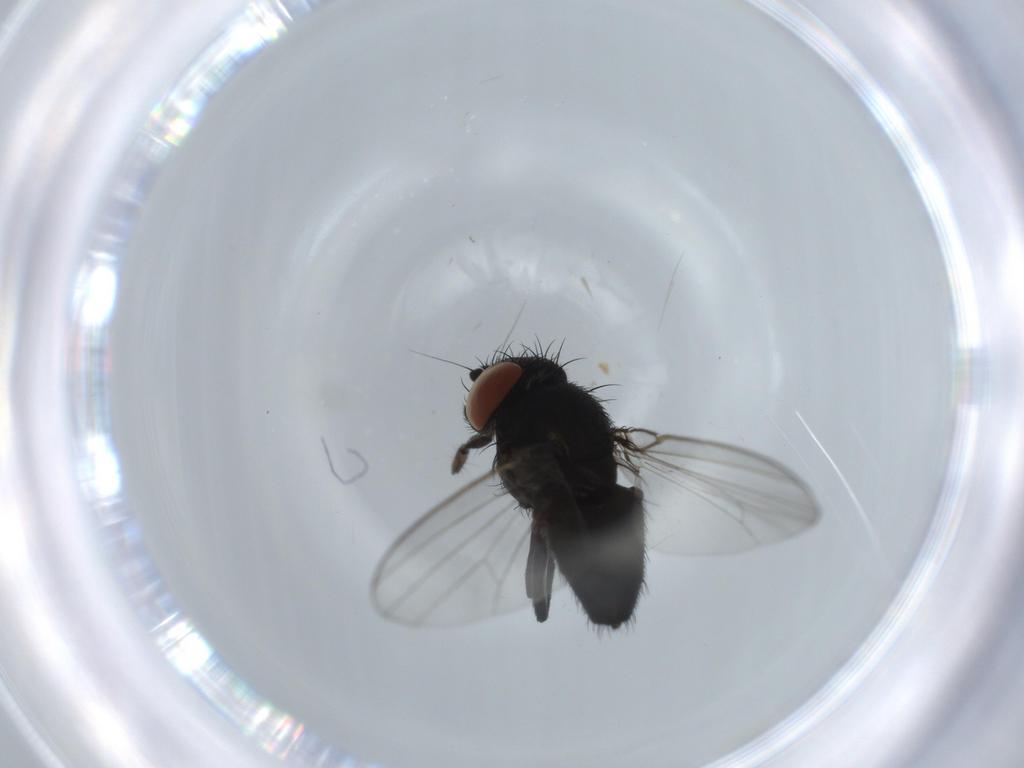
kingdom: Animalia
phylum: Arthropoda
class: Insecta
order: Diptera
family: Milichiidae
